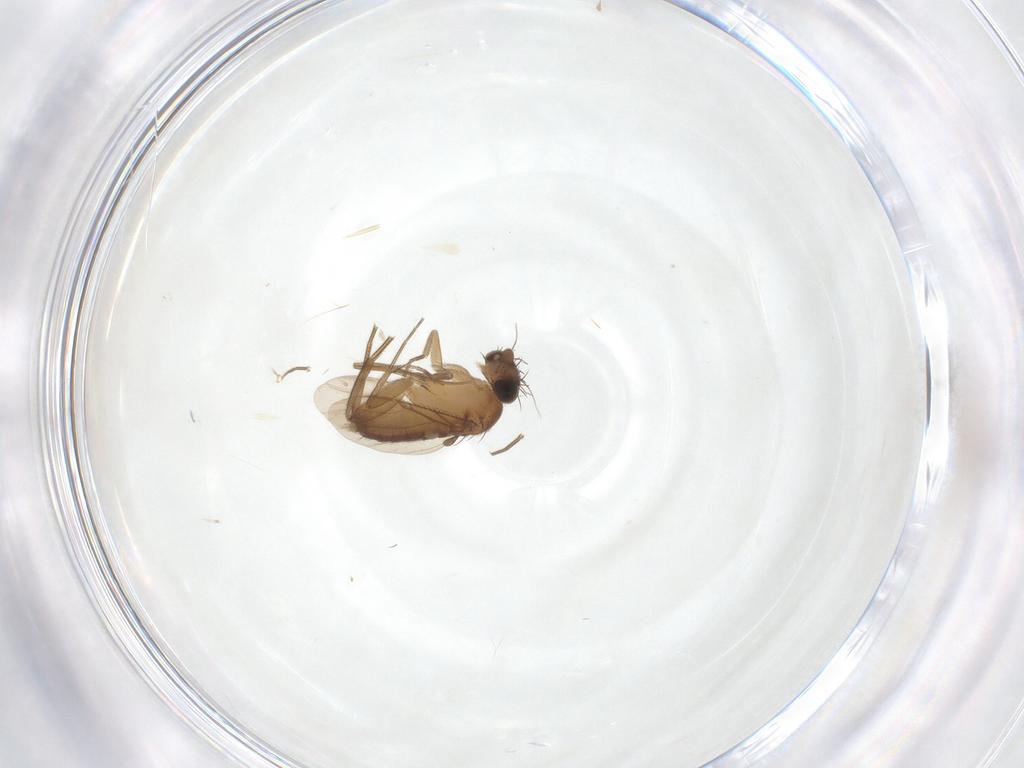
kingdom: Animalia
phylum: Arthropoda
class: Insecta
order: Diptera
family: Phoridae
